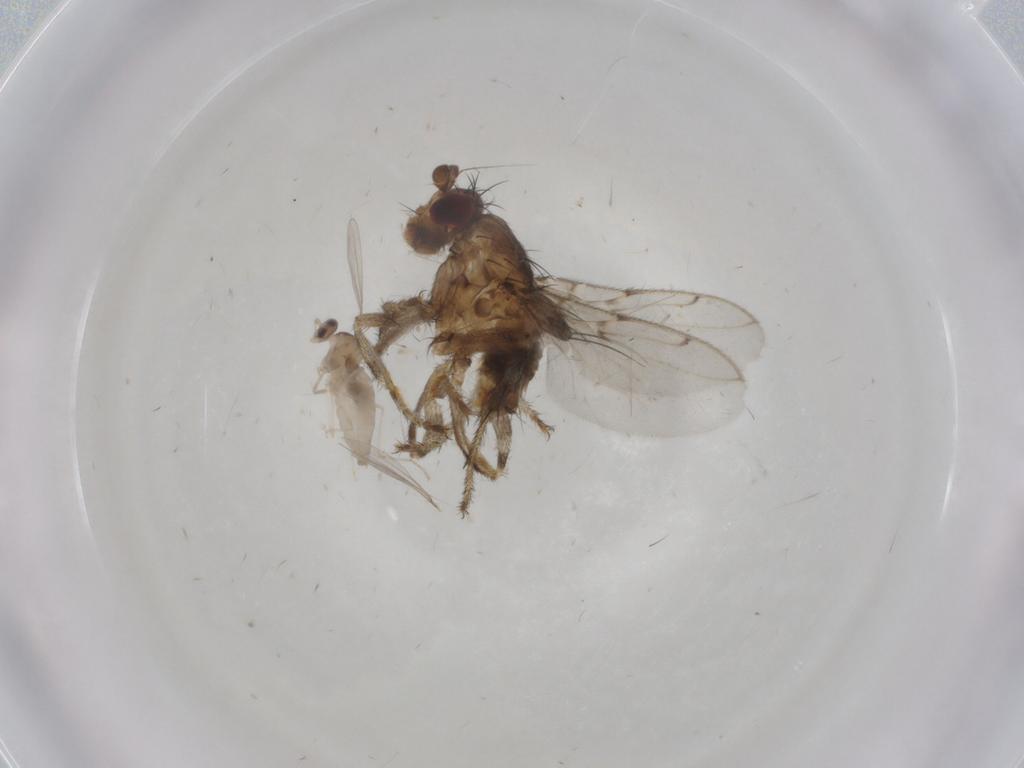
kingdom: Animalia
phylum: Arthropoda
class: Insecta
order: Diptera
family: Sphaeroceridae
